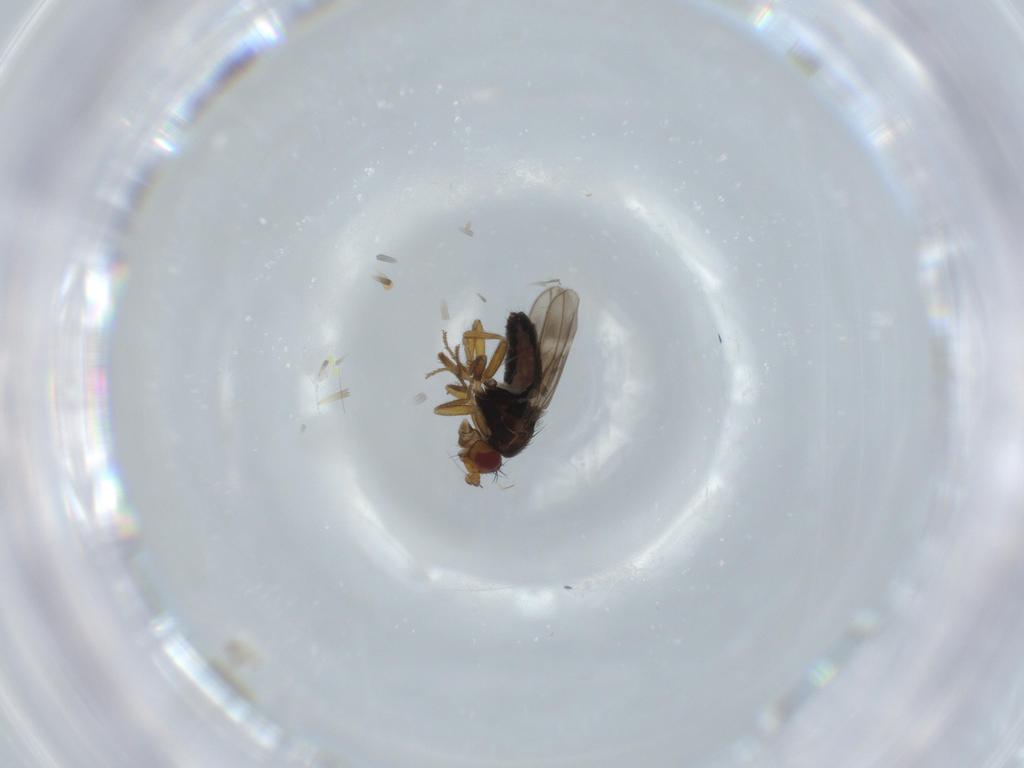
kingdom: Animalia
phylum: Arthropoda
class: Insecta
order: Diptera
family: Sphaeroceridae
